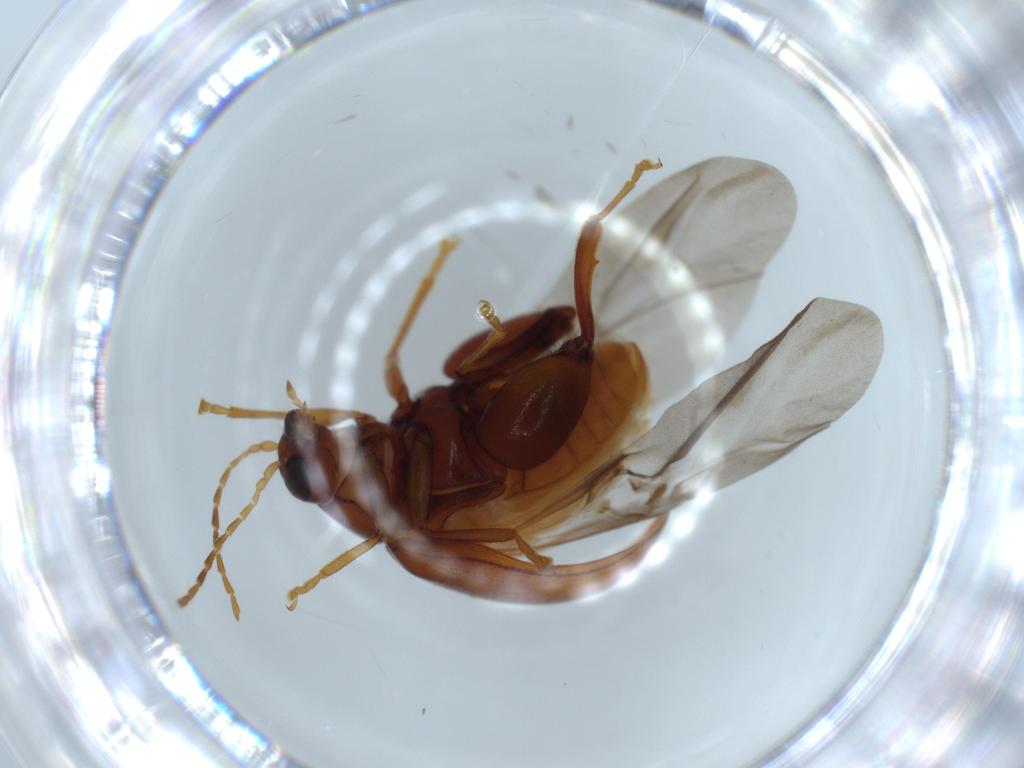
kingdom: Animalia
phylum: Arthropoda
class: Insecta
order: Coleoptera
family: Chrysomelidae
